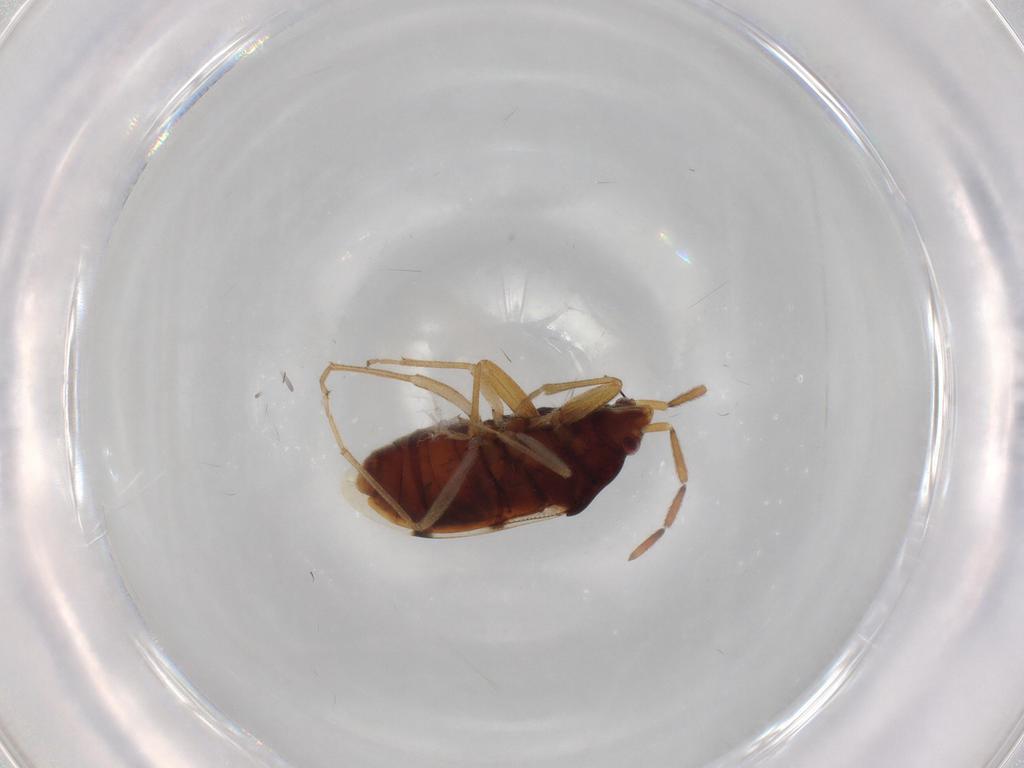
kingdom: Animalia
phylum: Arthropoda
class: Insecta
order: Hemiptera
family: Rhyparochromidae
